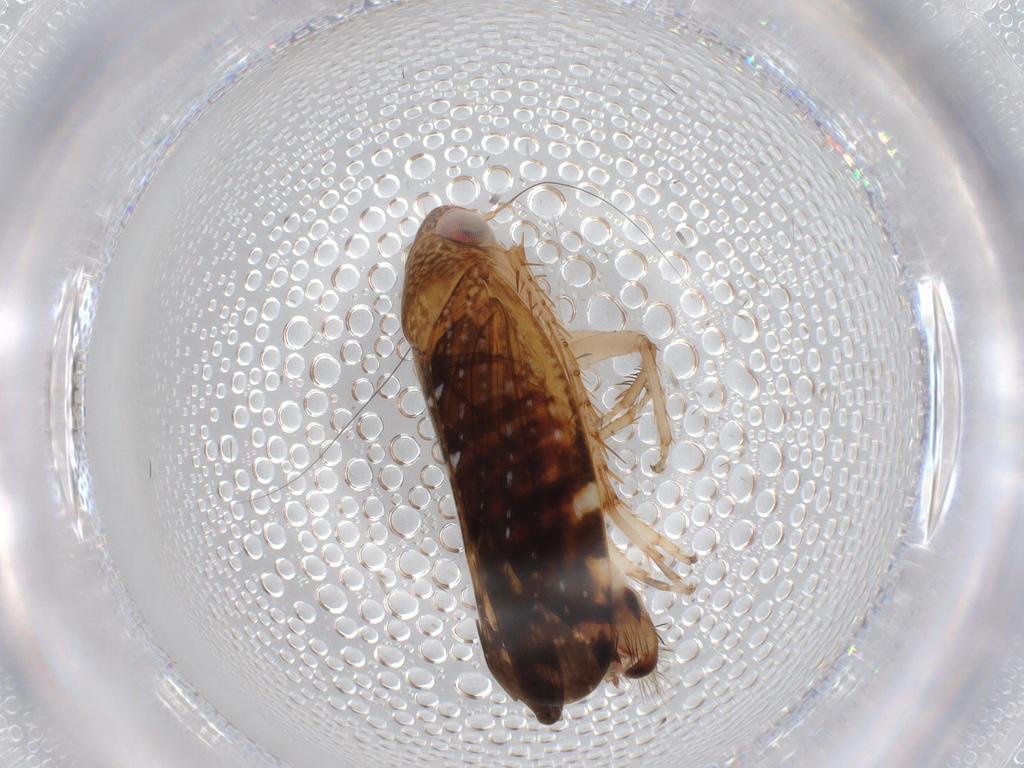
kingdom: Animalia
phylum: Arthropoda
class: Insecta
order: Hemiptera
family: Cicadellidae
